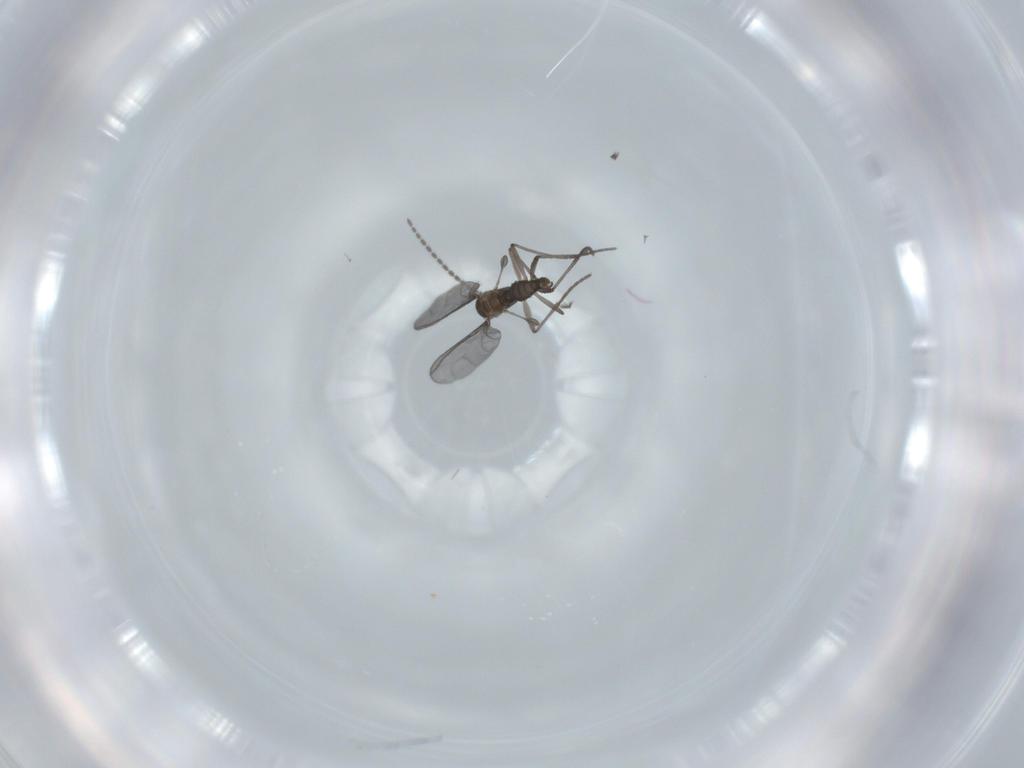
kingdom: Animalia
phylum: Arthropoda
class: Insecta
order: Diptera
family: Sciaridae
